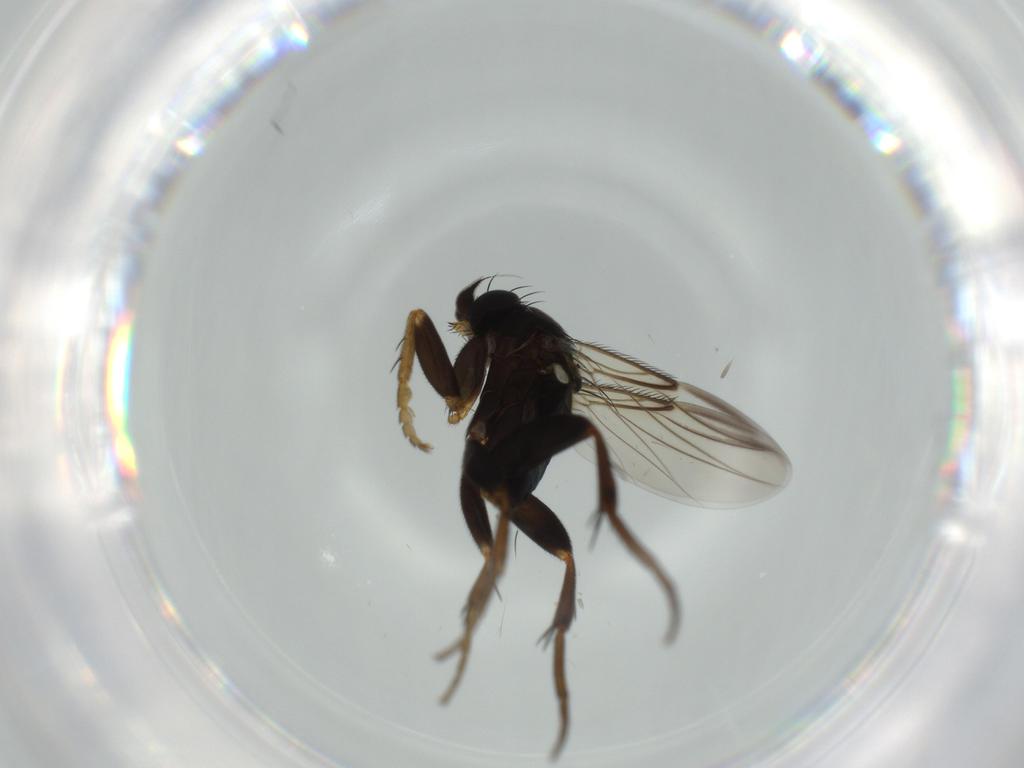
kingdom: Animalia
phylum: Arthropoda
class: Insecta
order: Diptera
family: Phoridae
